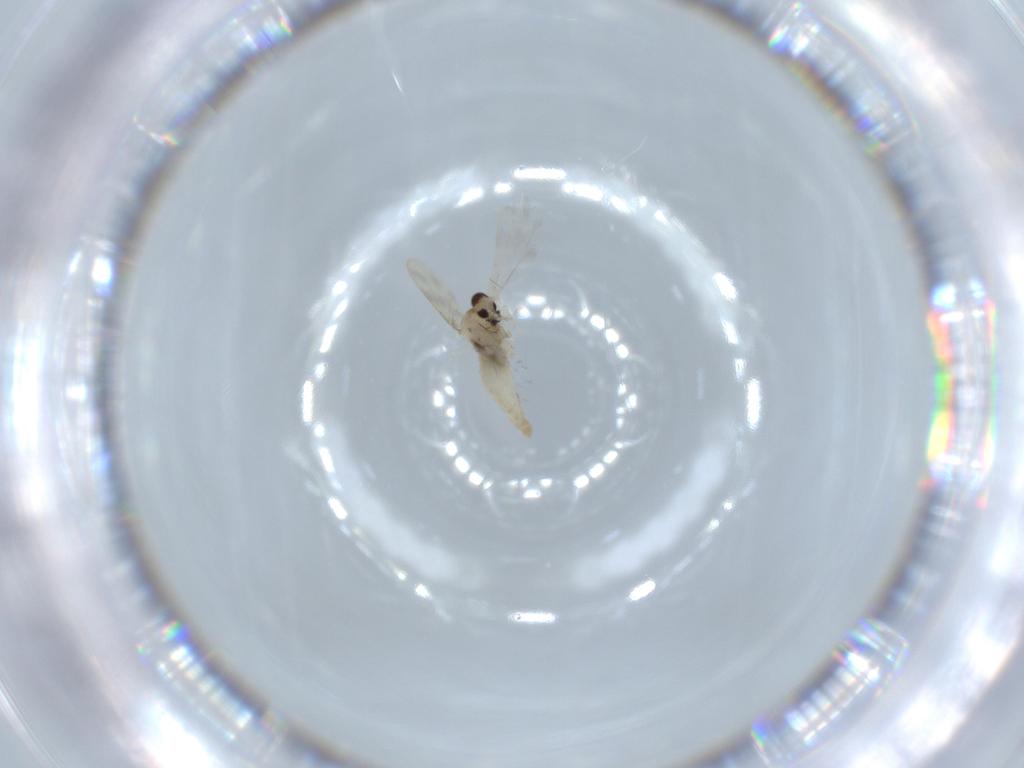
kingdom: Animalia
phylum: Arthropoda
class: Insecta
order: Diptera
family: Cecidomyiidae
